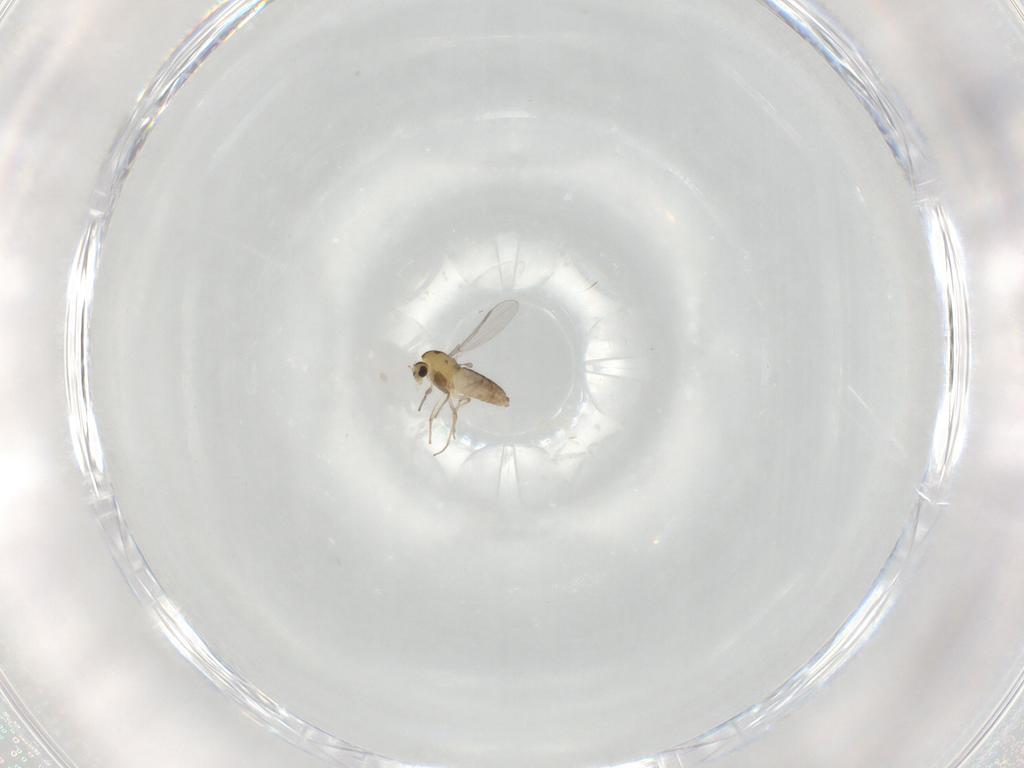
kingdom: Animalia
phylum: Arthropoda
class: Insecta
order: Diptera
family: Chironomidae
